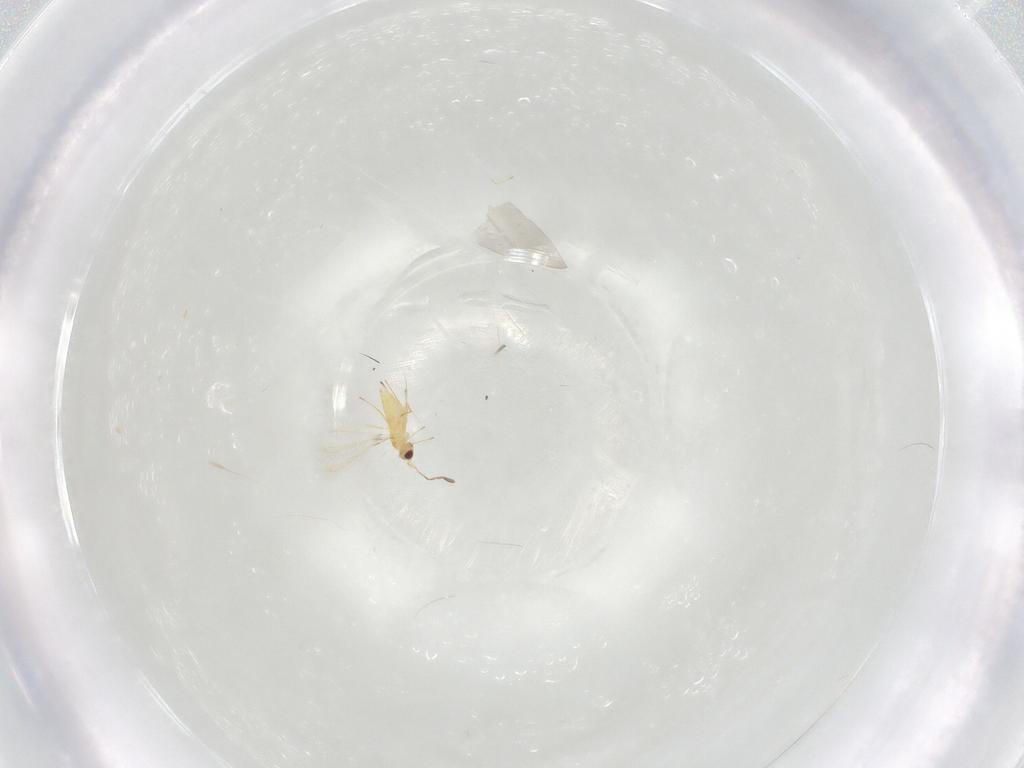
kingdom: Animalia
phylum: Arthropoda
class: Insecta
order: Hymenoptera
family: Mymaridae
